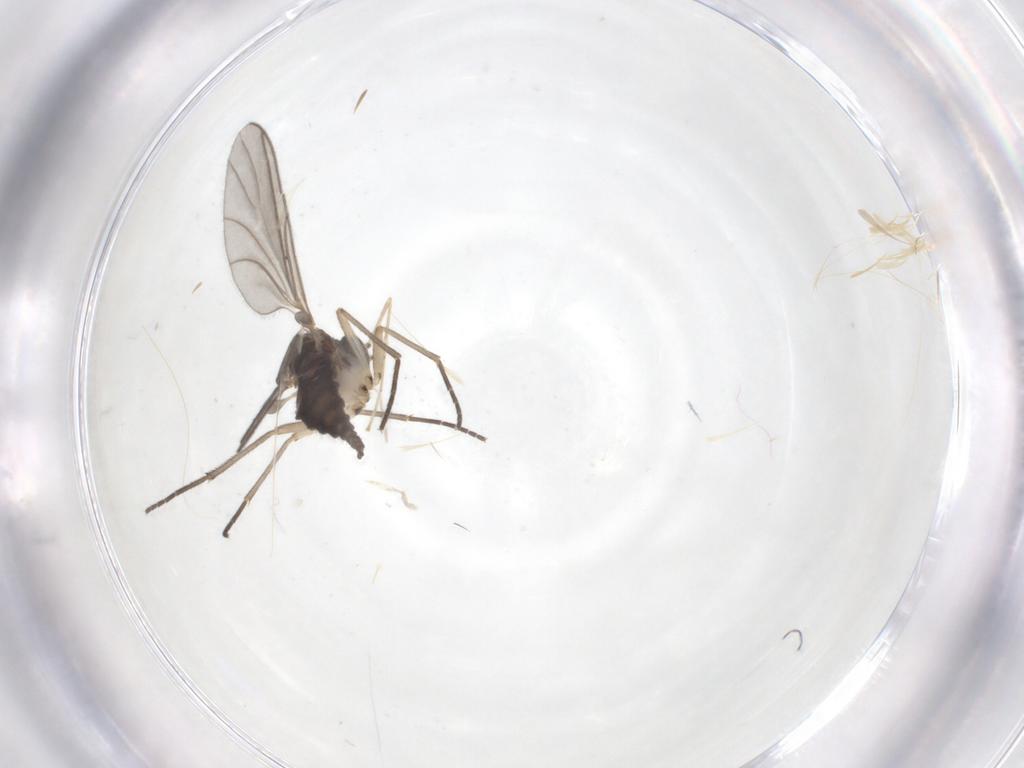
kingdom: Animalia
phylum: Arthropoda
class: Insecta
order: Diptera
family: Sciaridae
